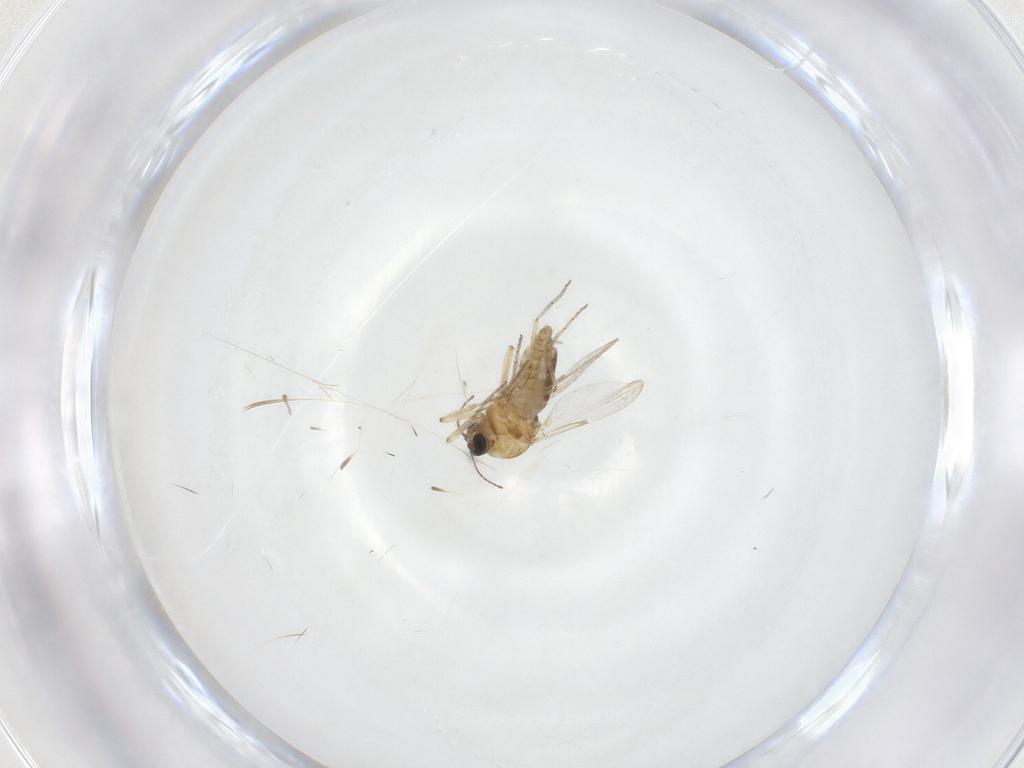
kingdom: Animalia
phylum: Arthropoda
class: Insecta
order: Diptera
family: Ceratopogonidae
